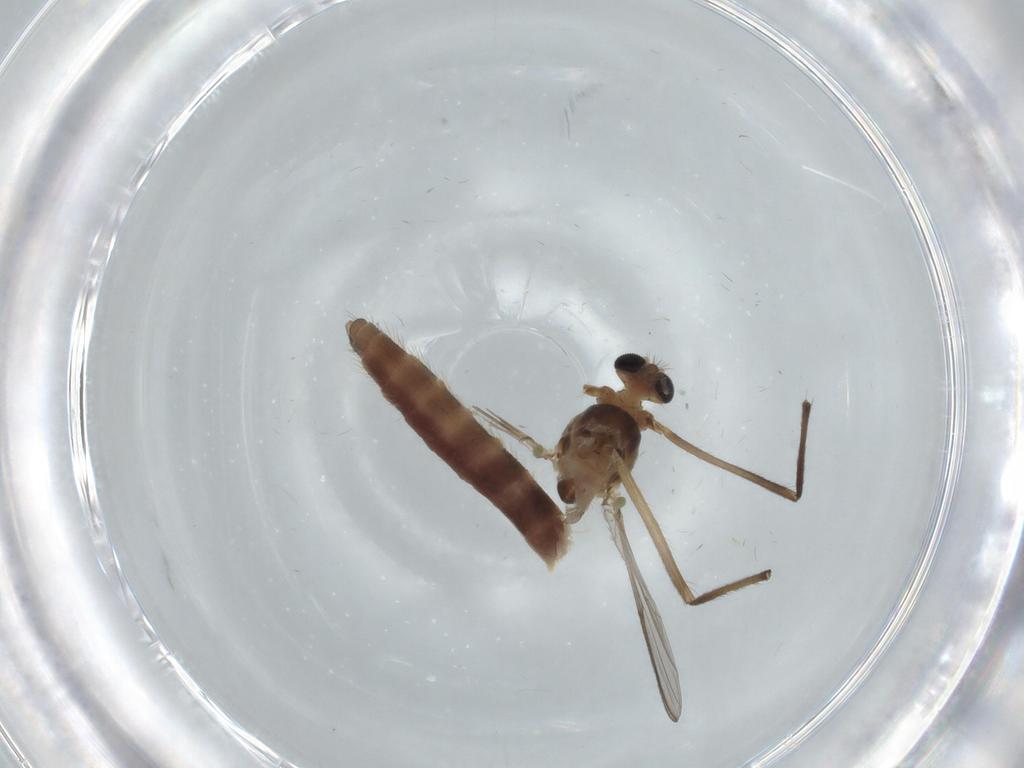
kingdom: Animalia
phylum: Arthropoda
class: Insecta
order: Diptera
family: Chironomidae
